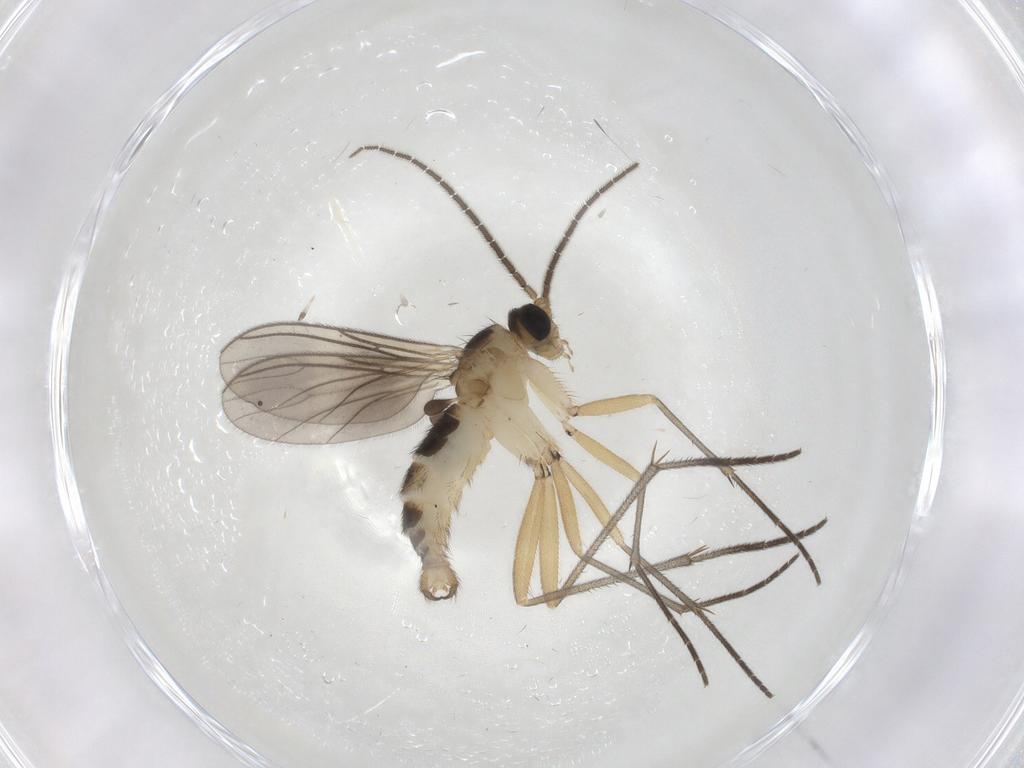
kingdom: Animalia
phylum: Arthropoda
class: Insecta
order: Diptera
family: Sciaridae
